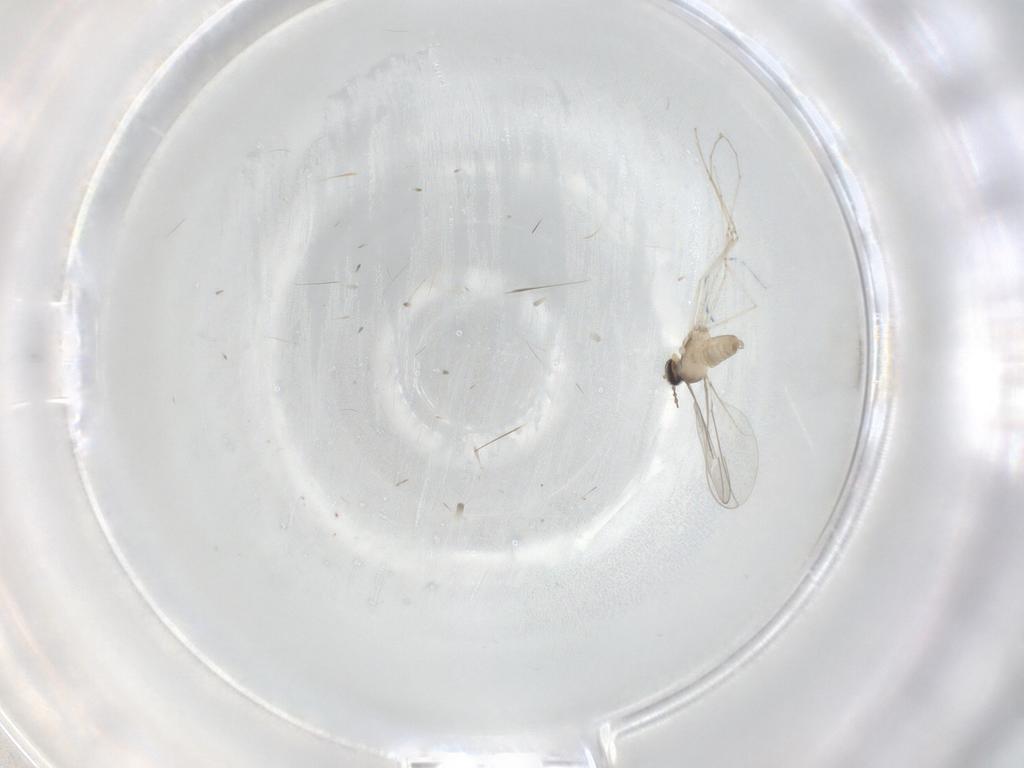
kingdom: Animalia
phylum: Arthropoda
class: Insecta
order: Diptera
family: Cecidomyiidae
